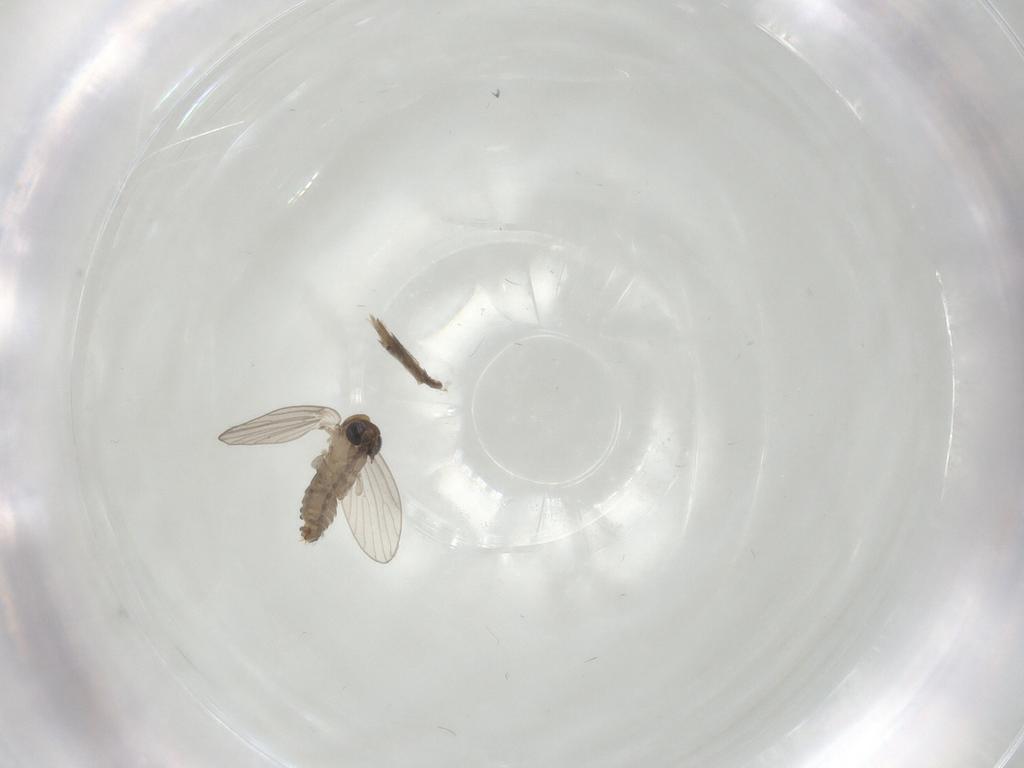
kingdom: Animalia
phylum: Arthropoda
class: Insecta
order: Diptera
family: Psychodidae
